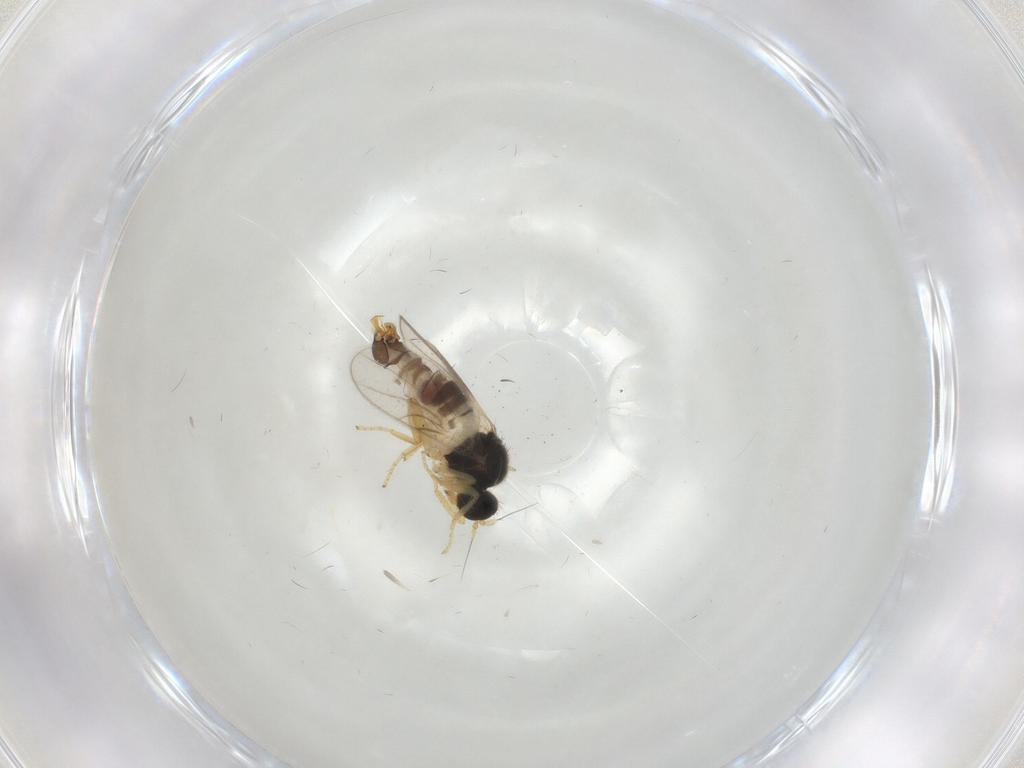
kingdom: Animalia
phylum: Arthropoda
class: Insecta
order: Diptera
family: Hybotidae
